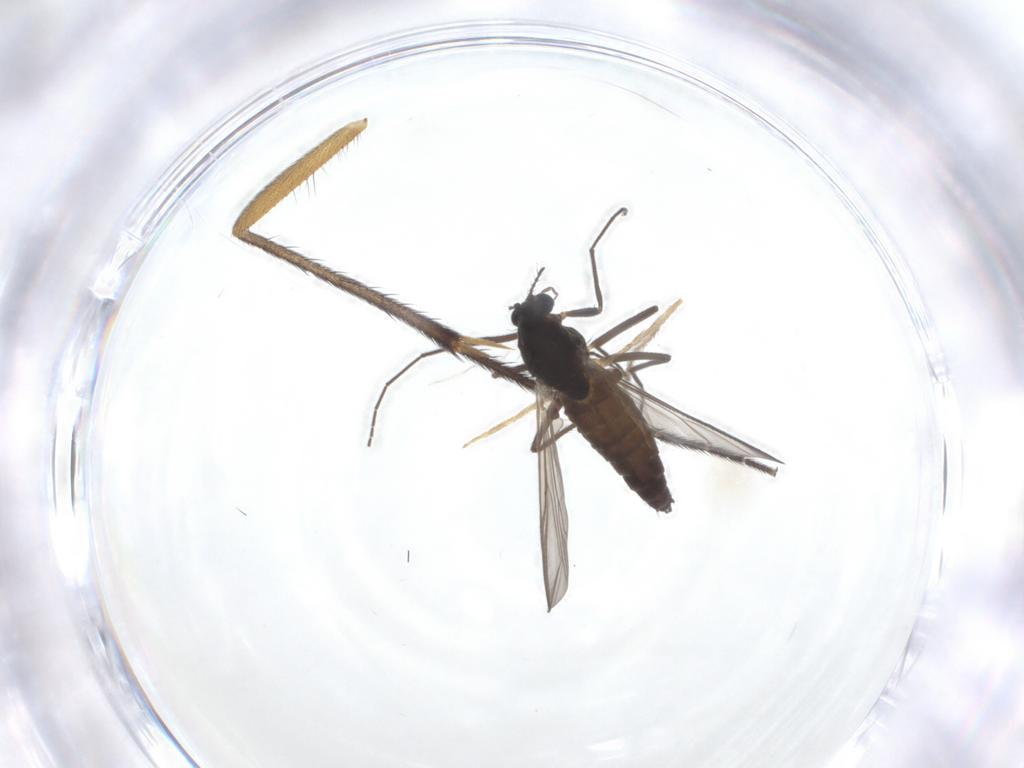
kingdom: Animalia
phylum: Arthropoda
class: Insecta
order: Diptera
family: Chironomidae
